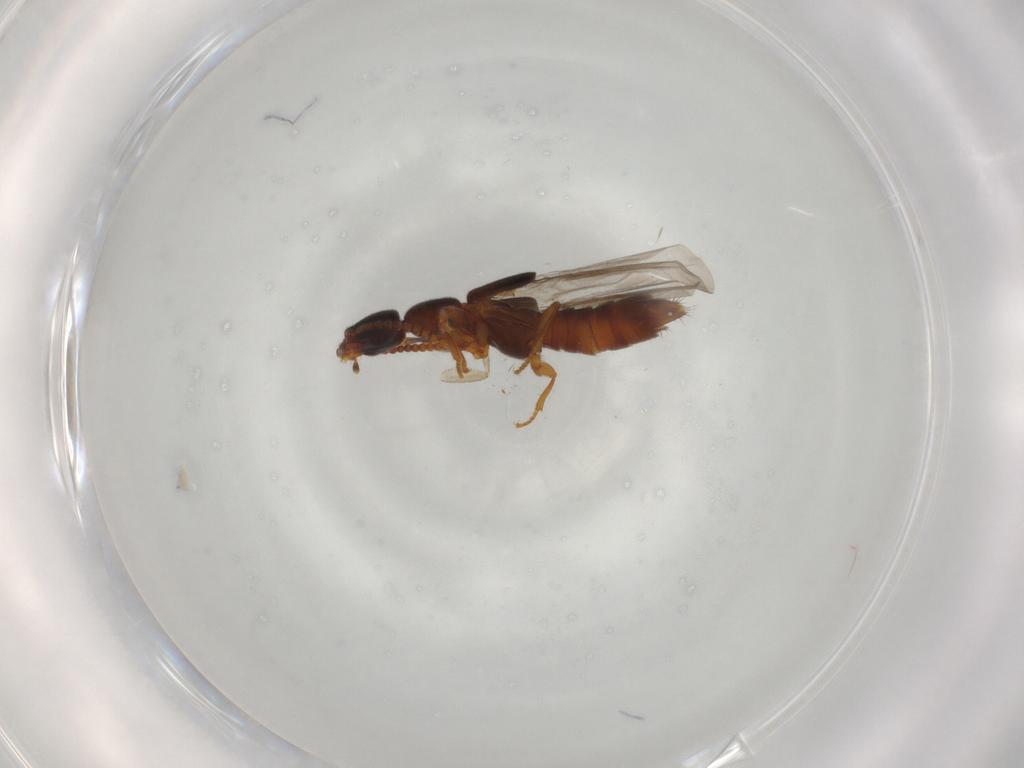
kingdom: Animalia
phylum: Arthropoda
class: Insecta
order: Coleoptera
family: Staphylinidae
